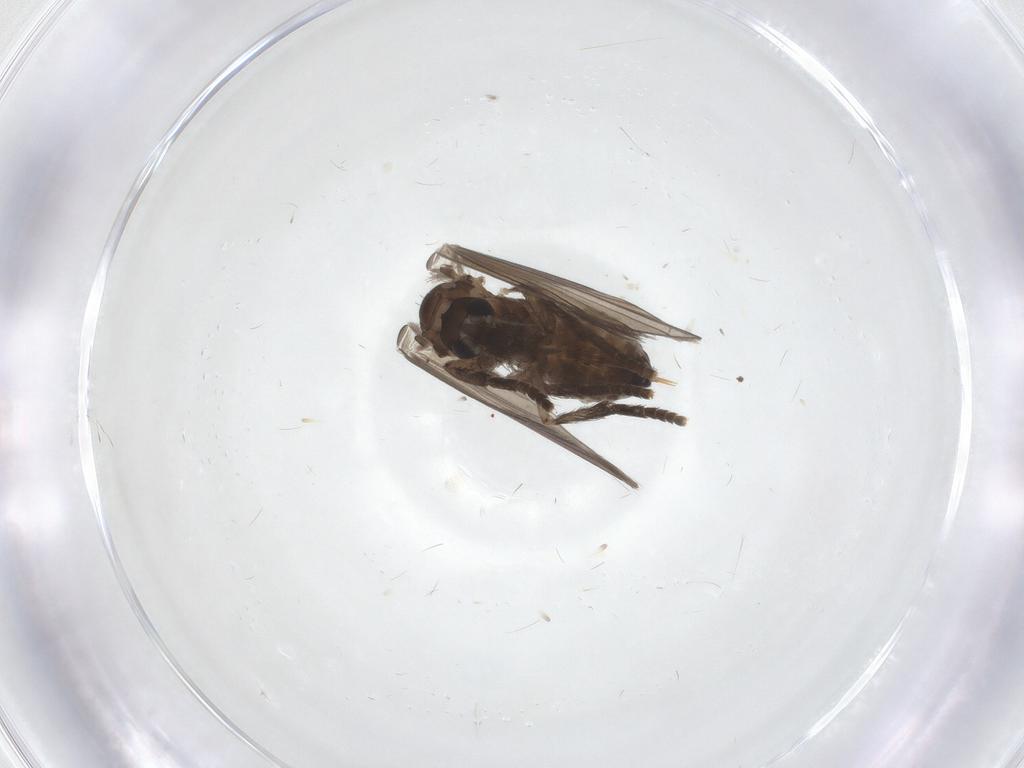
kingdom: Animalia
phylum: Arthropoda
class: Insecta
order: Diptera
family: Psychodidae
